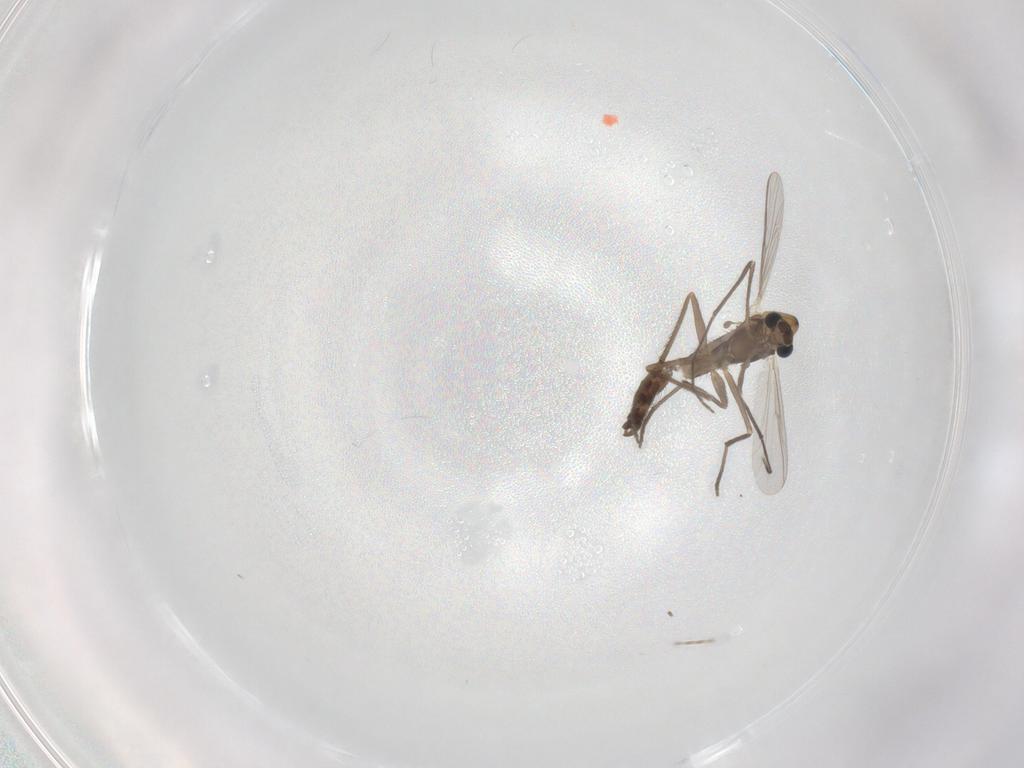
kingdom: Animalia
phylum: Arthropoda
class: Insecta
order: Diptera
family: Chironomidae
